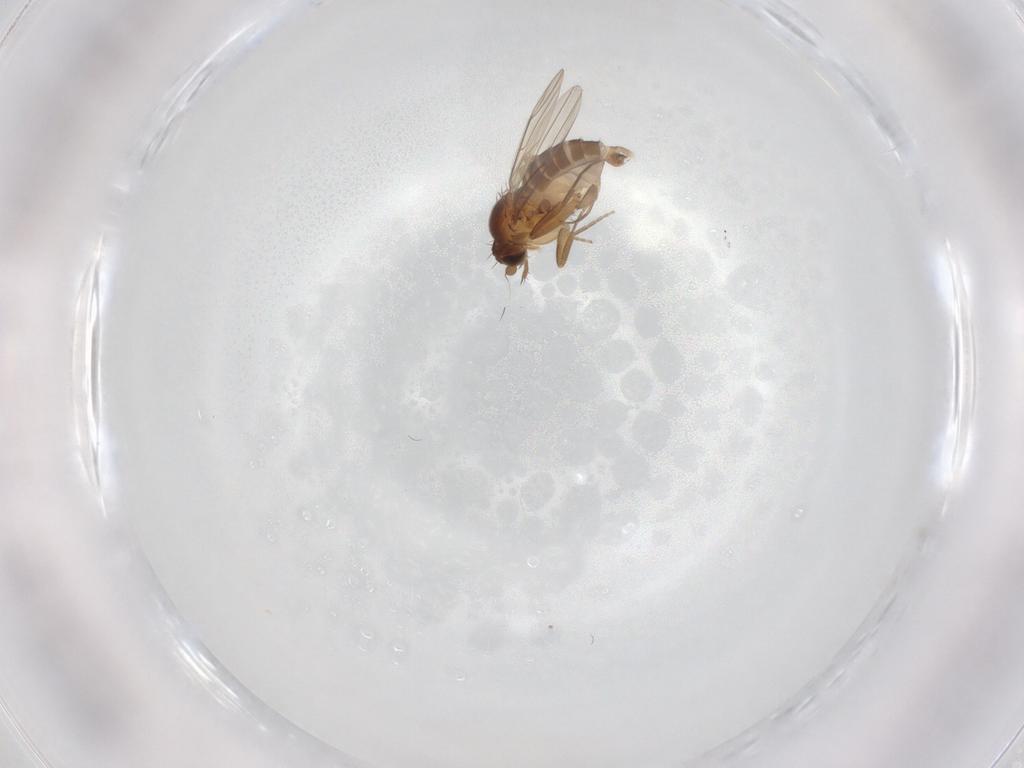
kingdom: Animalia
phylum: Arthropoda
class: Insecta
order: Diptera
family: Phoridae
